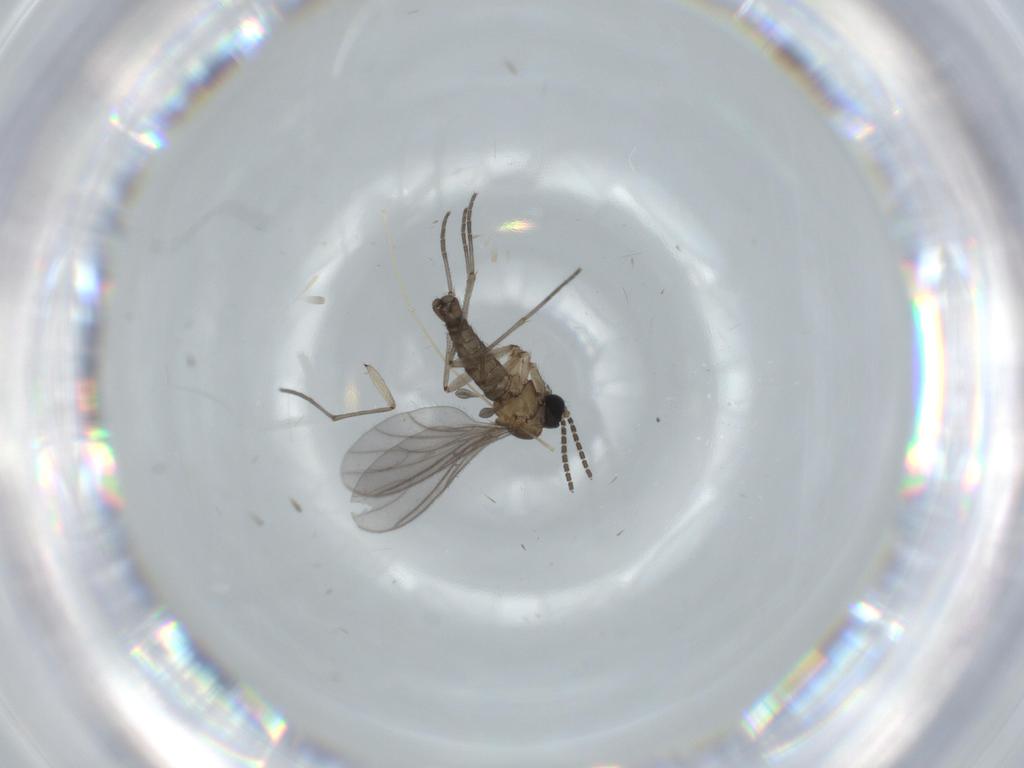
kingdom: Animalia
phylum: Arthropoda
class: Insecta
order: Diptera
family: Sciaridae
